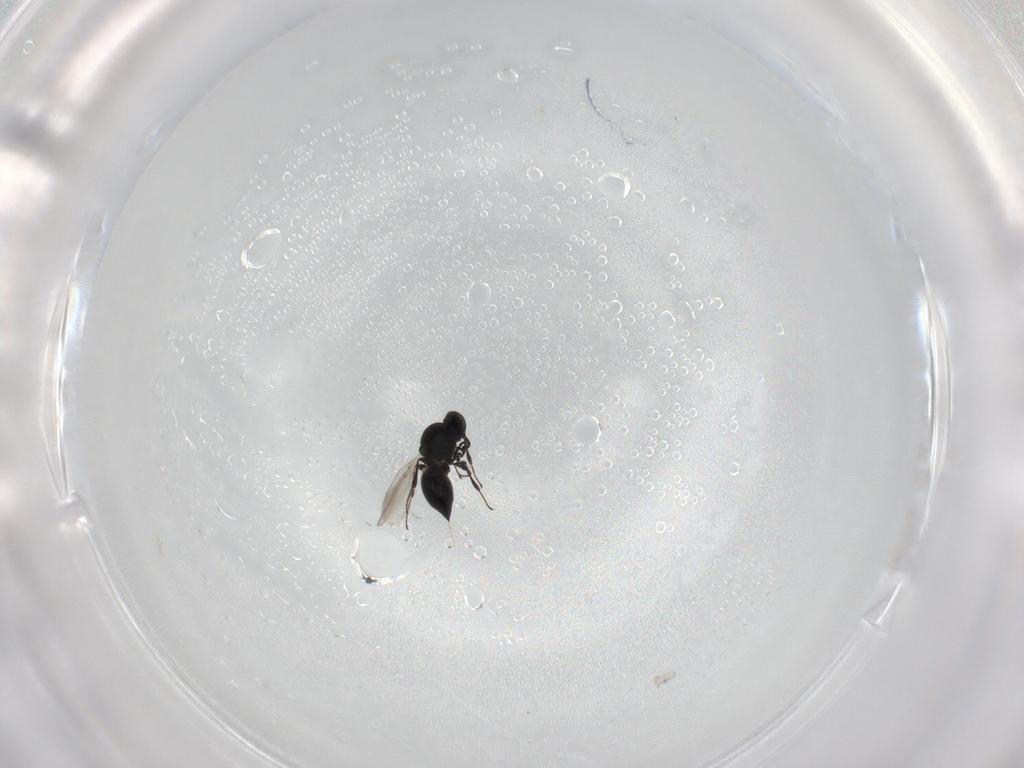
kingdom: Animalia
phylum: Arthropoda
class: Insecta
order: Hymenoptera
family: Platygastridae
